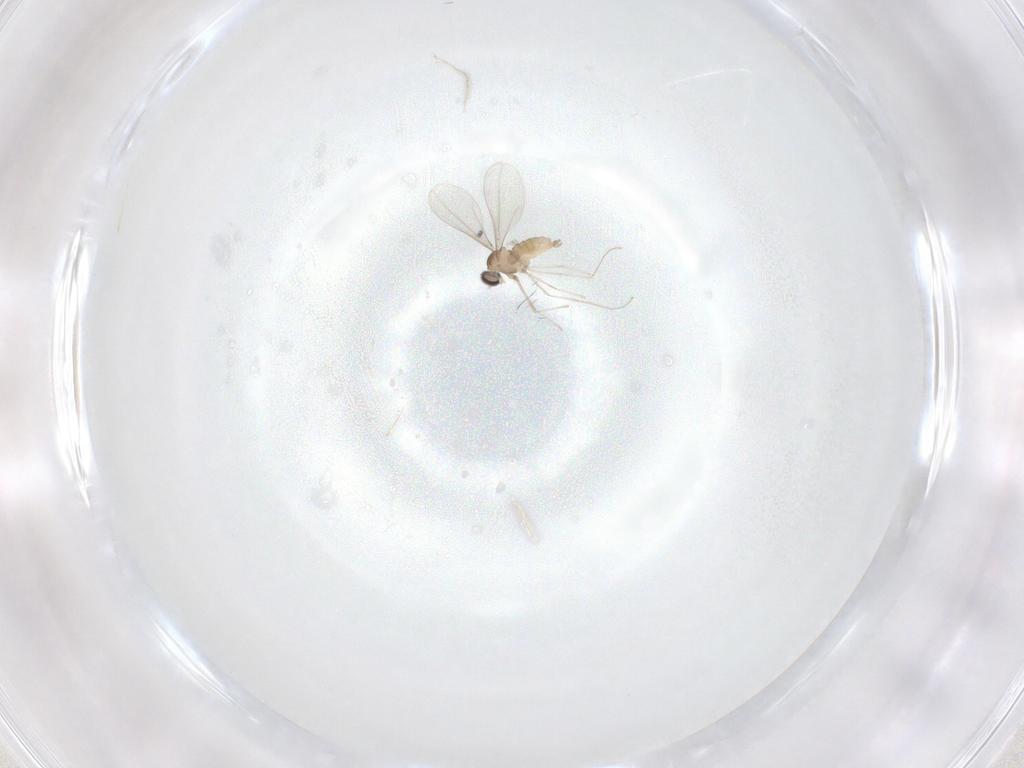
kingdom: Animalia
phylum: Arthropoda
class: Insecta
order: Diptera
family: Cecidomyiidae
